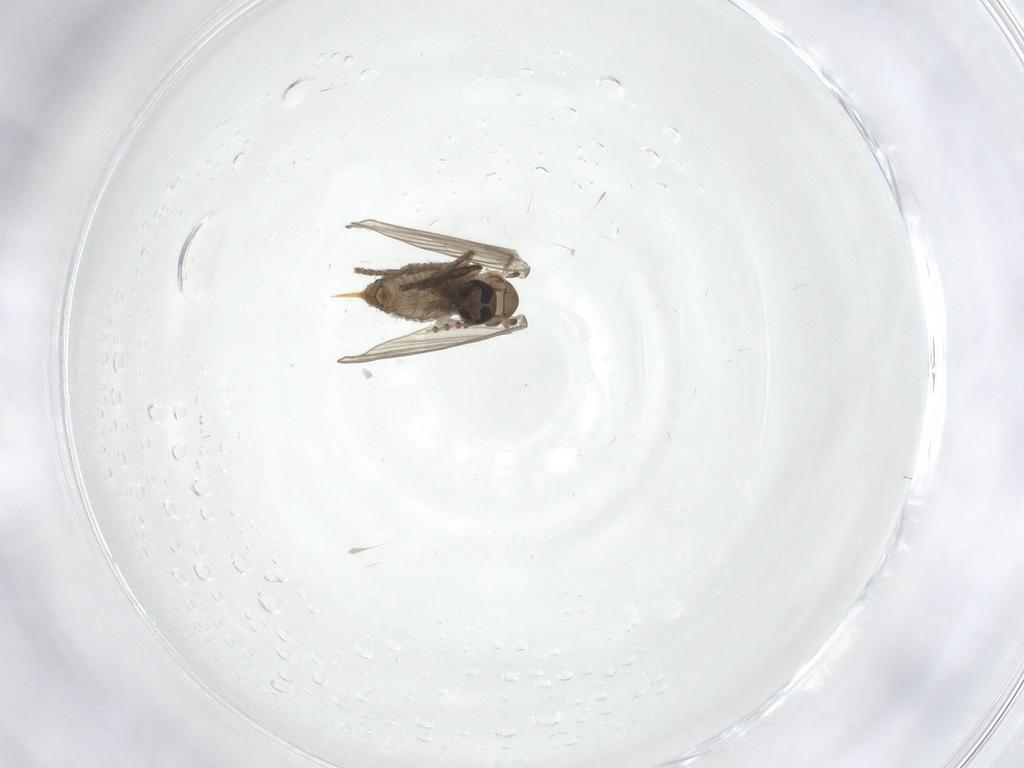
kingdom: Animalia
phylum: Arthropoda
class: Insecta
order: Diptera
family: Psychodidae
